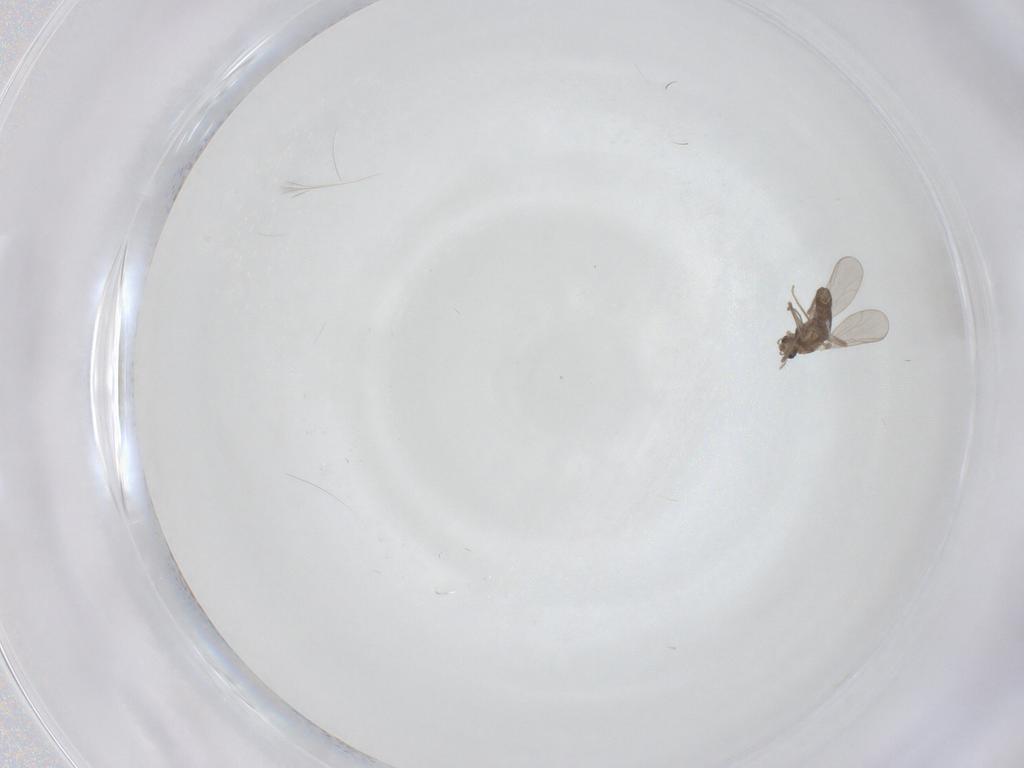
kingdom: Animalia
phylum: Arthropoda
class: Insecta
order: Diptera
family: Chironomidae
